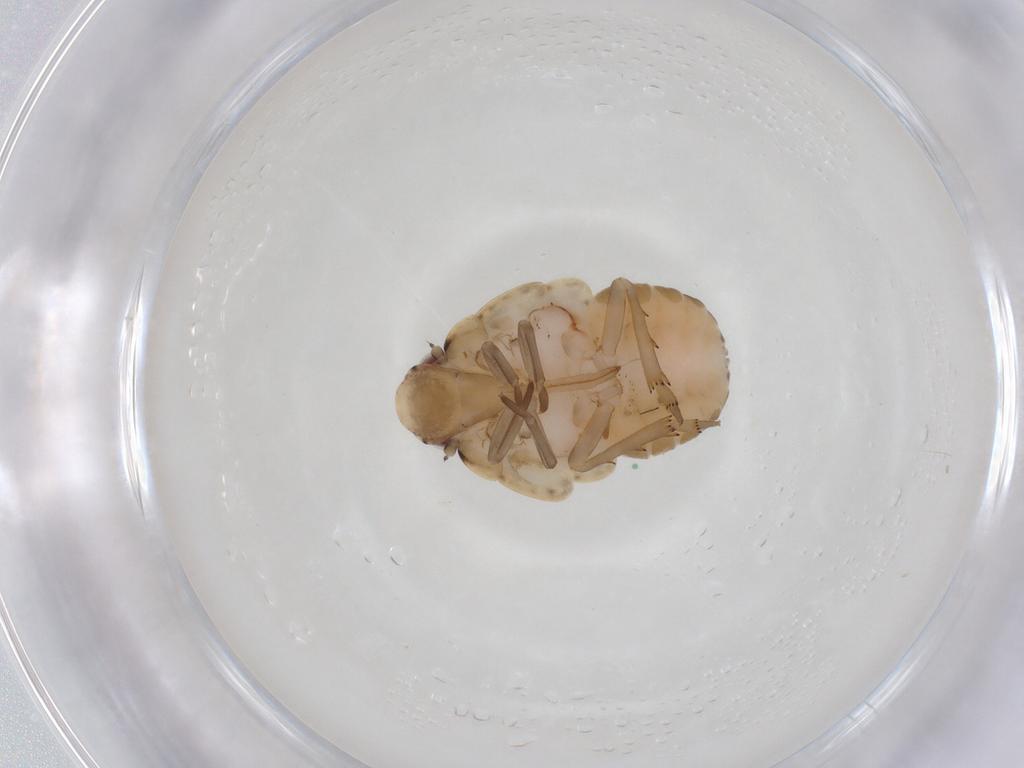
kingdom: Animalia
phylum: Arthropoda
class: Insecta
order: Hemiptera
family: Flatidae
